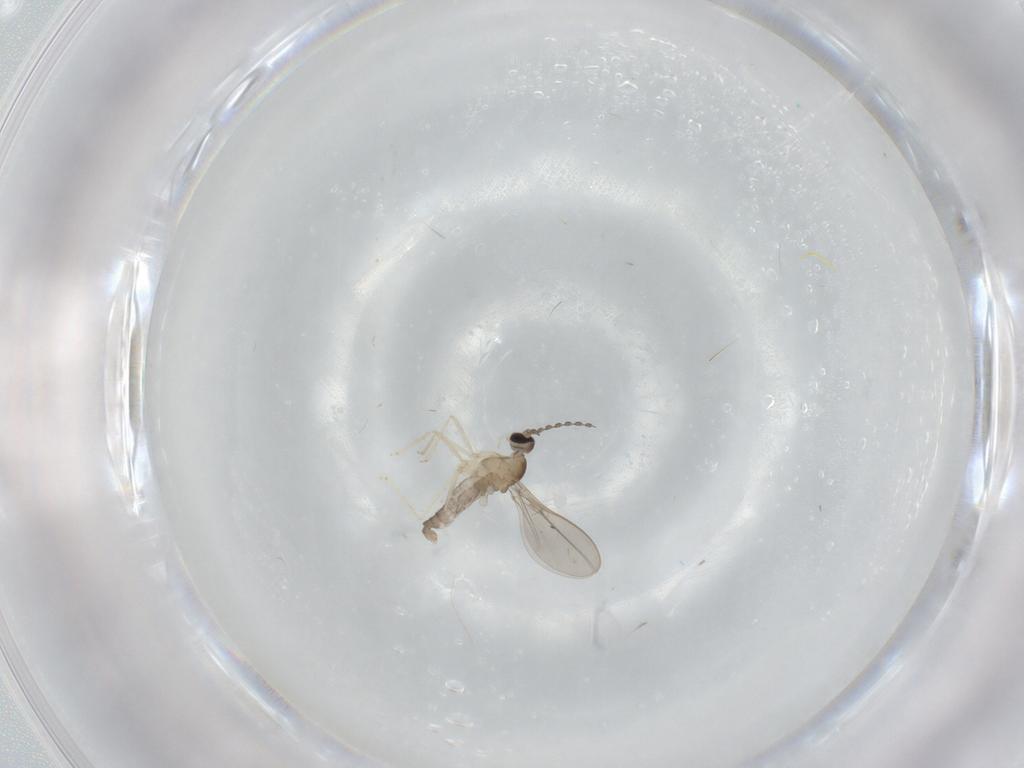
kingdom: Animalia
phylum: Arthropoda
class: Insecta
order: Diptera
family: Cecidomyiidae
